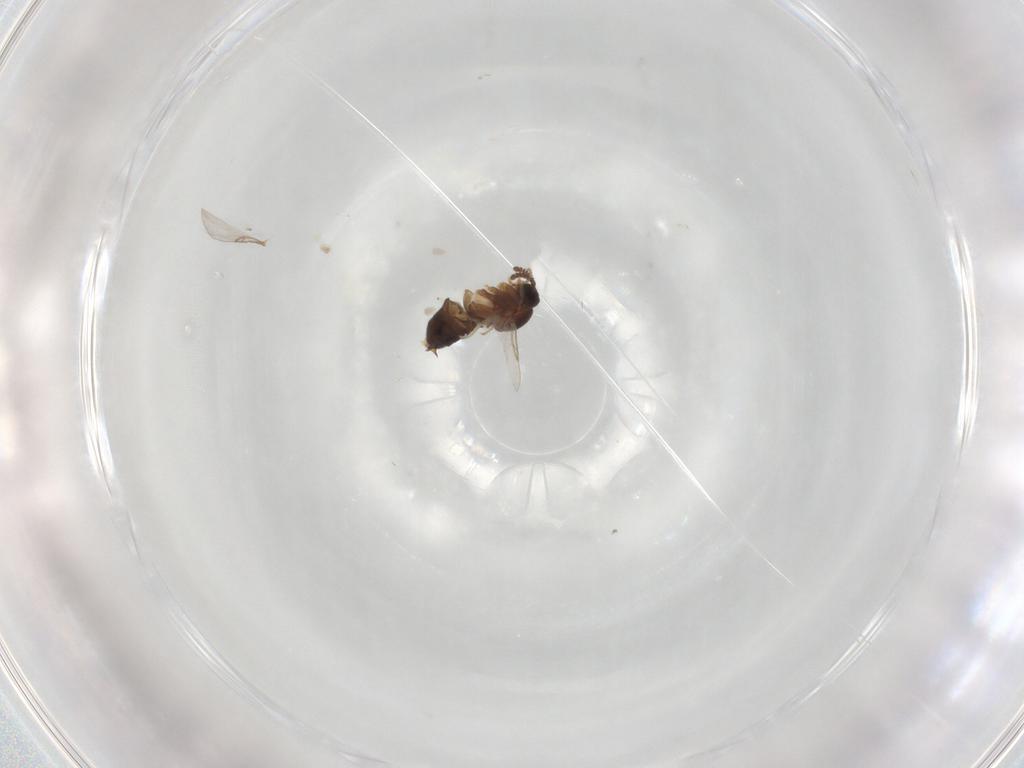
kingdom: Animalia
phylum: Arthropoda
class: Insecta
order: Diptera
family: Scatopsidae
